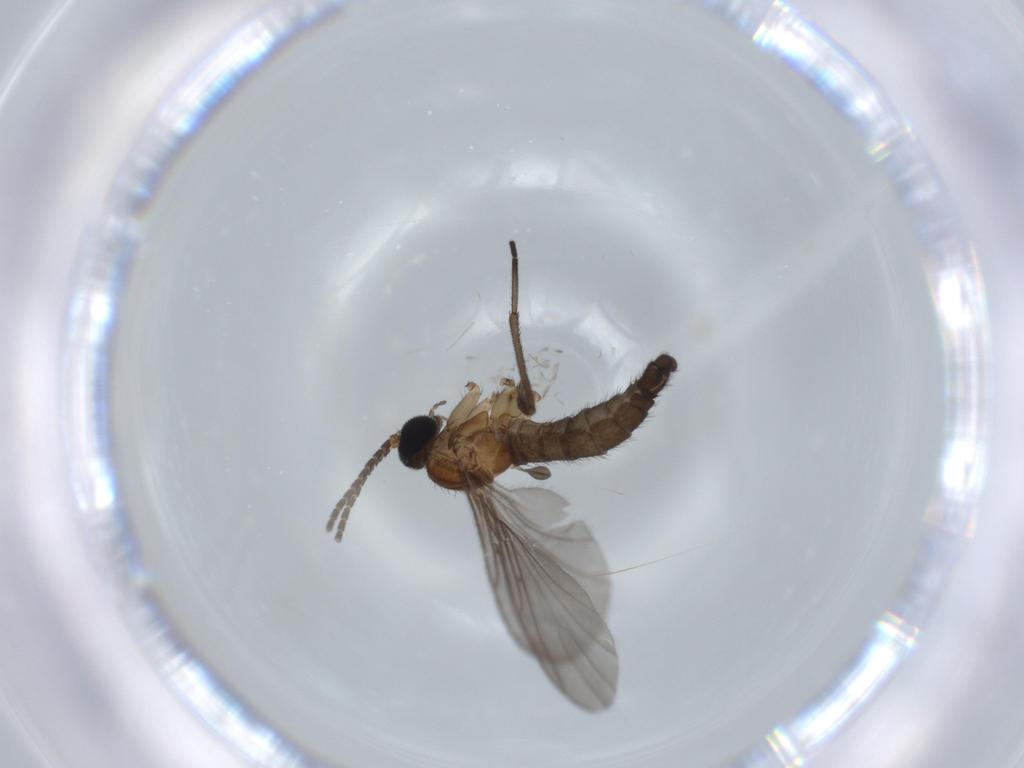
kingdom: Animalia
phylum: Arthropoda
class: Insecta
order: Diptera
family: Sciaridae
